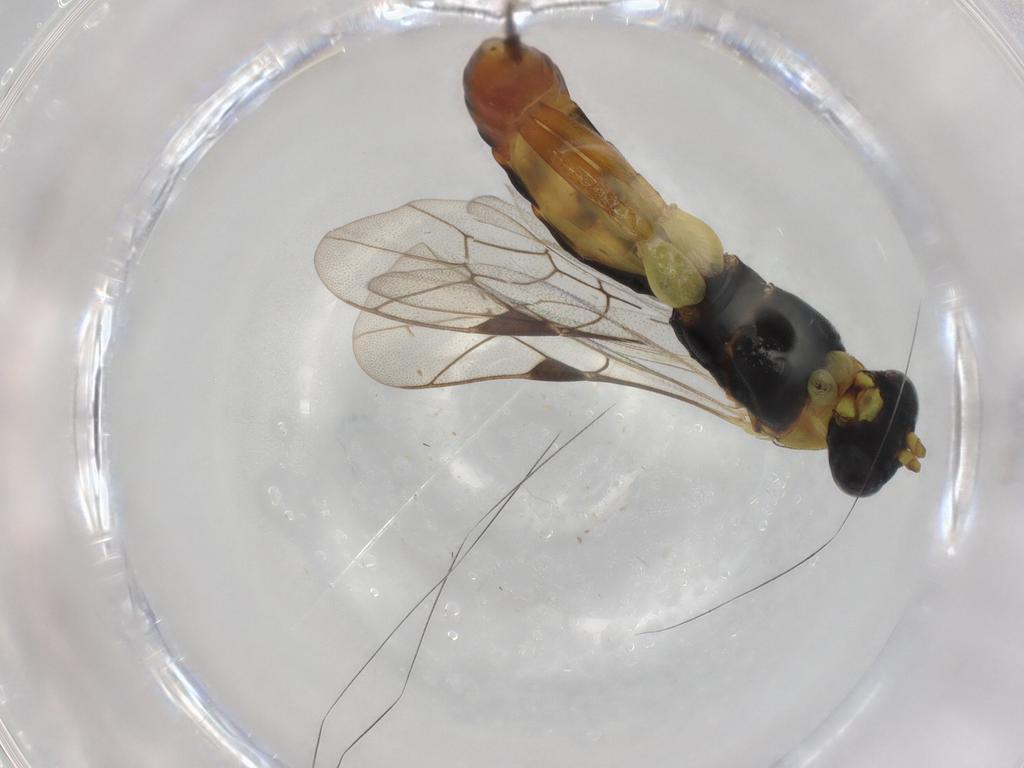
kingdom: Animalia
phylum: Arthropoda
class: Insecta
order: Hymenoptera
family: Ichneumonidae
